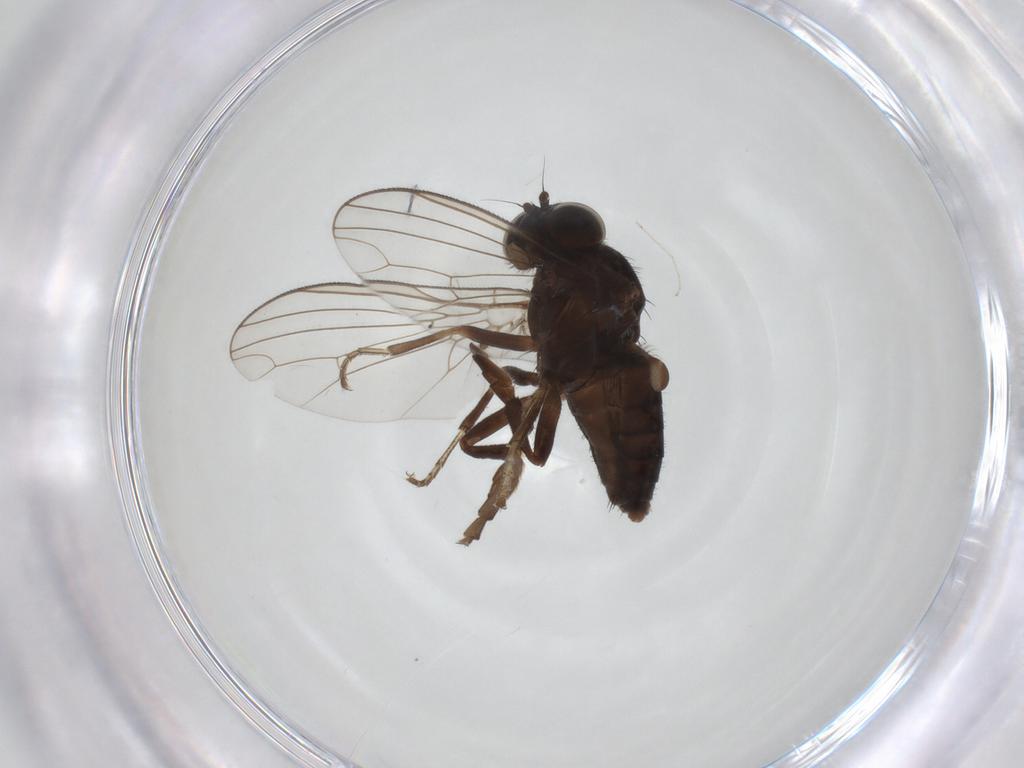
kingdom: Animalia
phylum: Arthropoda
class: Insecta
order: Diptera
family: Platypezidae
